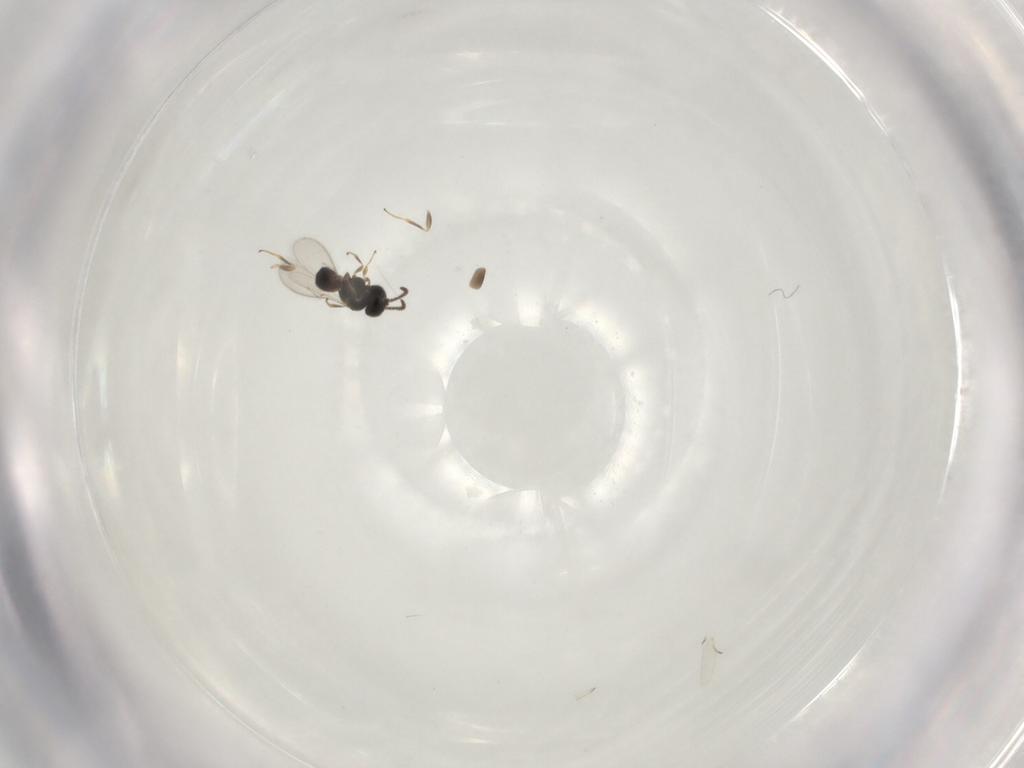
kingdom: Animalia
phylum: Arthropoda
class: Insecta
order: Hymenoptera
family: Scelionidae
